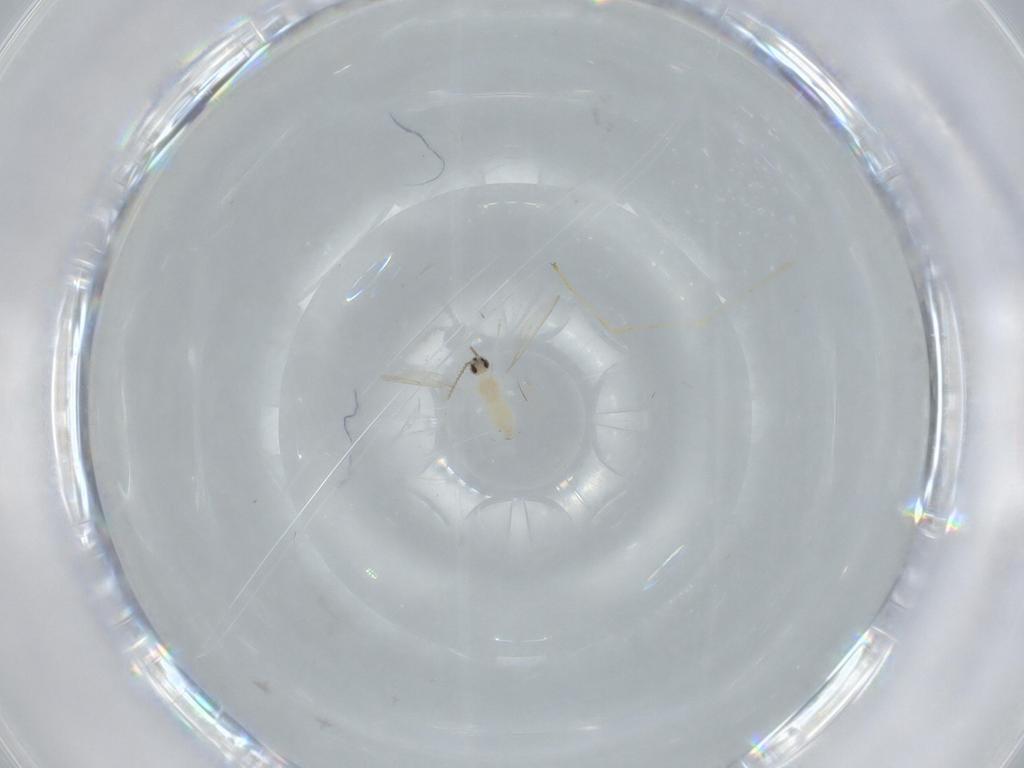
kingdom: Animalia
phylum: Arthropoda
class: Insecta
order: Diptera
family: Cecidomyiidae
